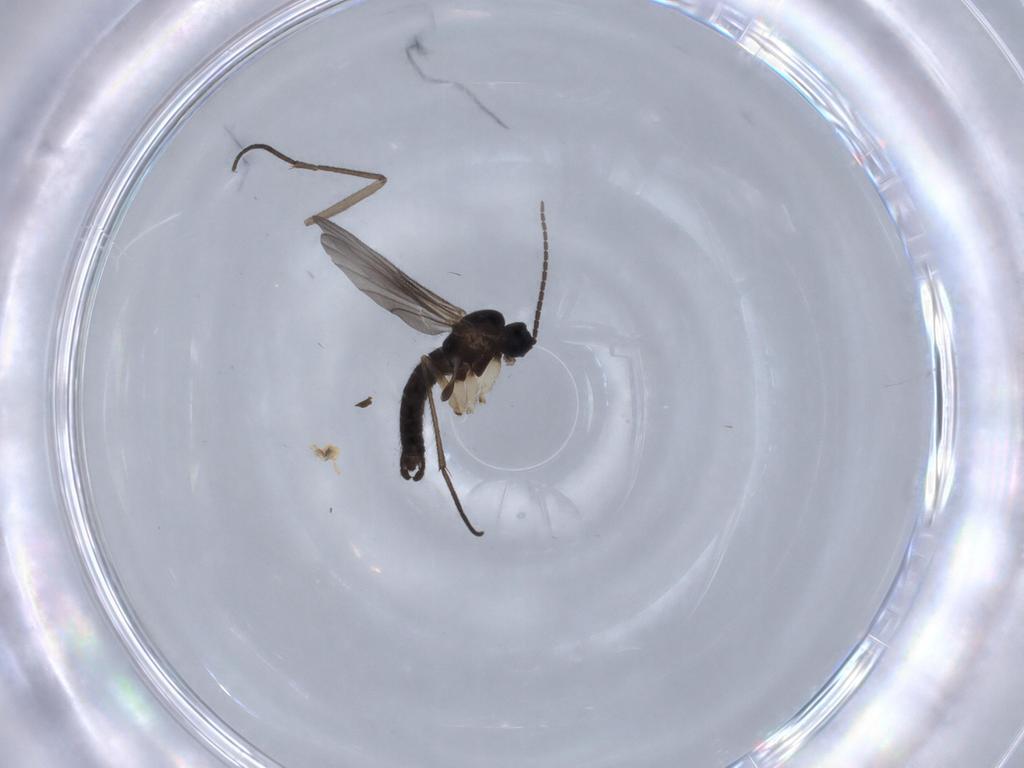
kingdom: Animalia
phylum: Arthropoda
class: Insecta
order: Diptera
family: Sciaridae
